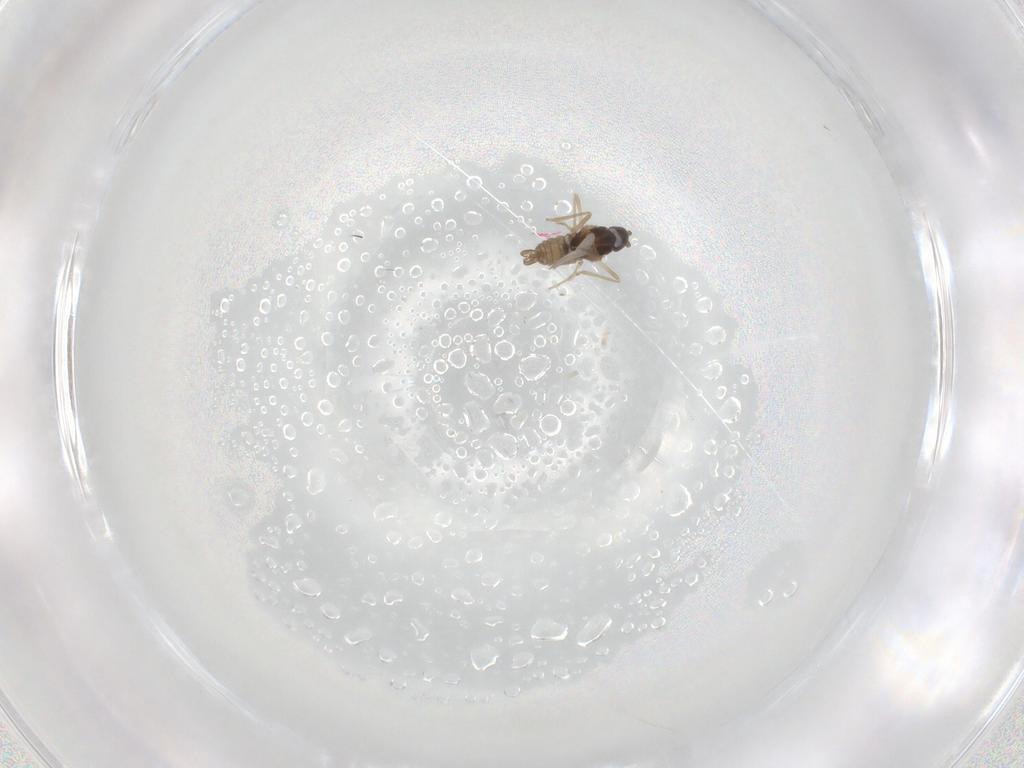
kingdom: Animalia
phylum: Arthropoda
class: Insecta
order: Diptera
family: Cecidomyiidae
